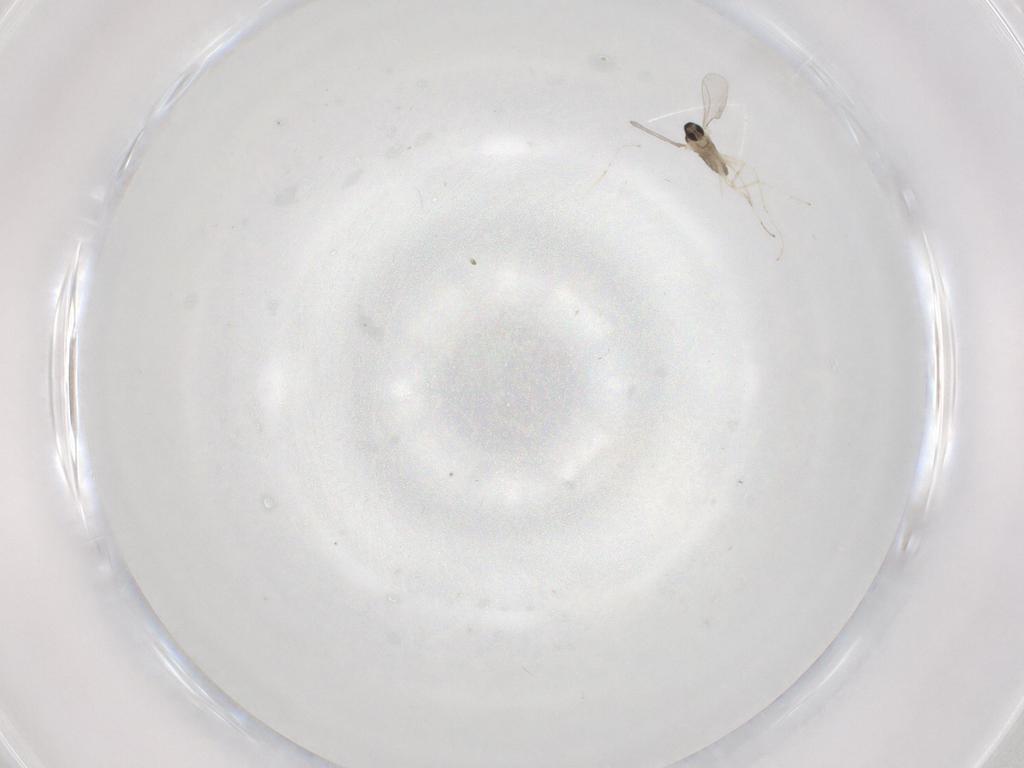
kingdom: Animalia
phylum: Arthropoda
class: Insecta
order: Diptera
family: Cecidomyiidae
